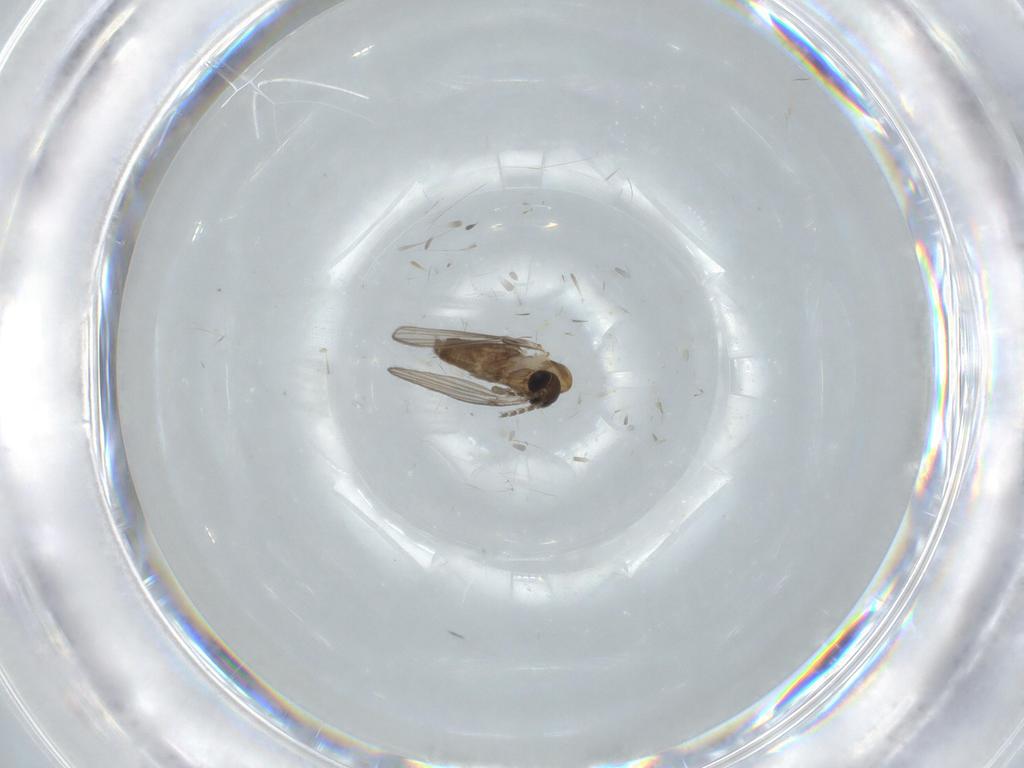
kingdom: Animalia
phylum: Arthropoda
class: Insecta
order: Diptera
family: Psychodidae
